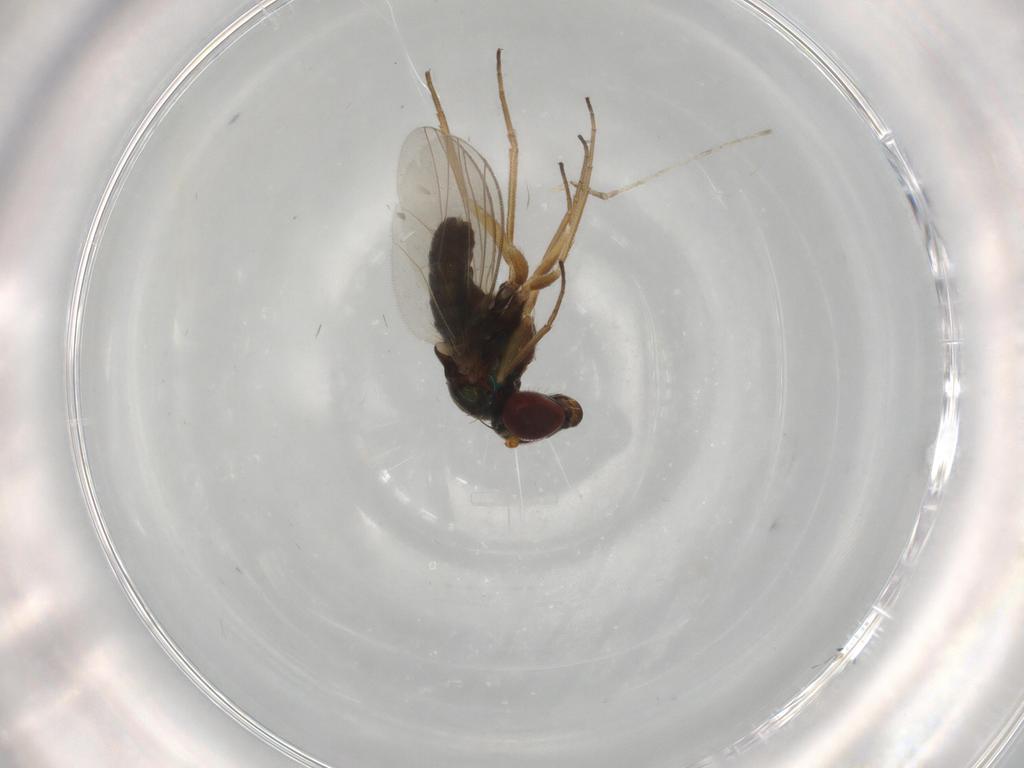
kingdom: Animalia
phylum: Arthropoda
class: Insecta
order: Diptera
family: Dolichopodidae
